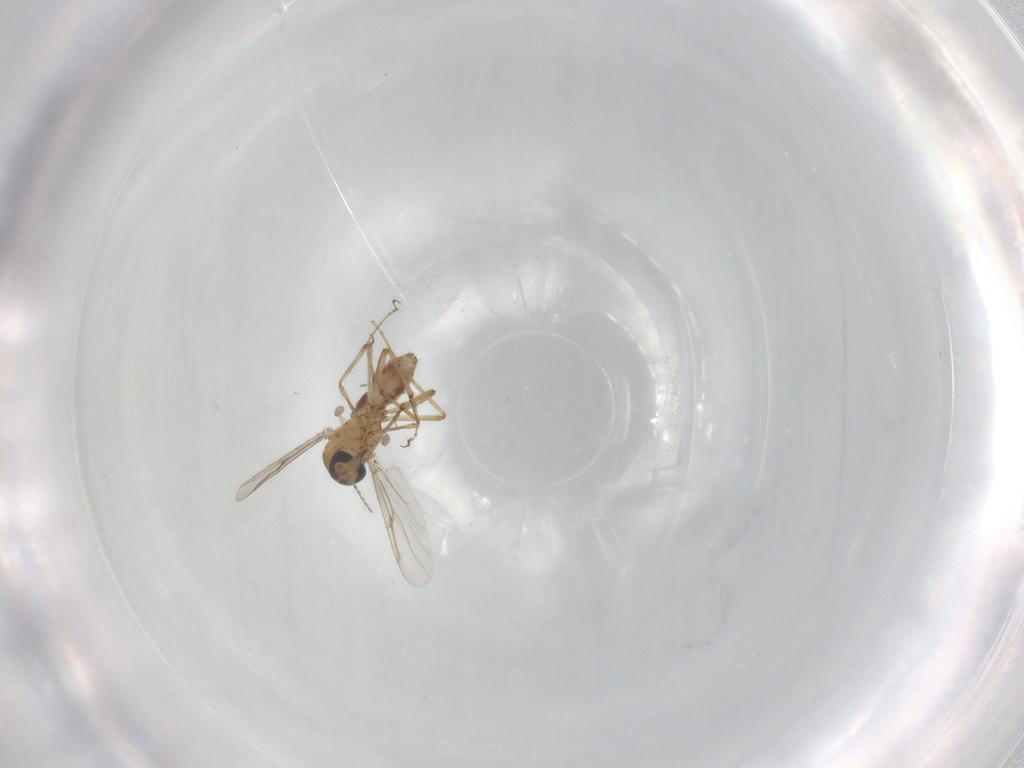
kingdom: Animalia
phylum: Arthropoda
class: Insecta
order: Diptera
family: Ceratopogonidae
